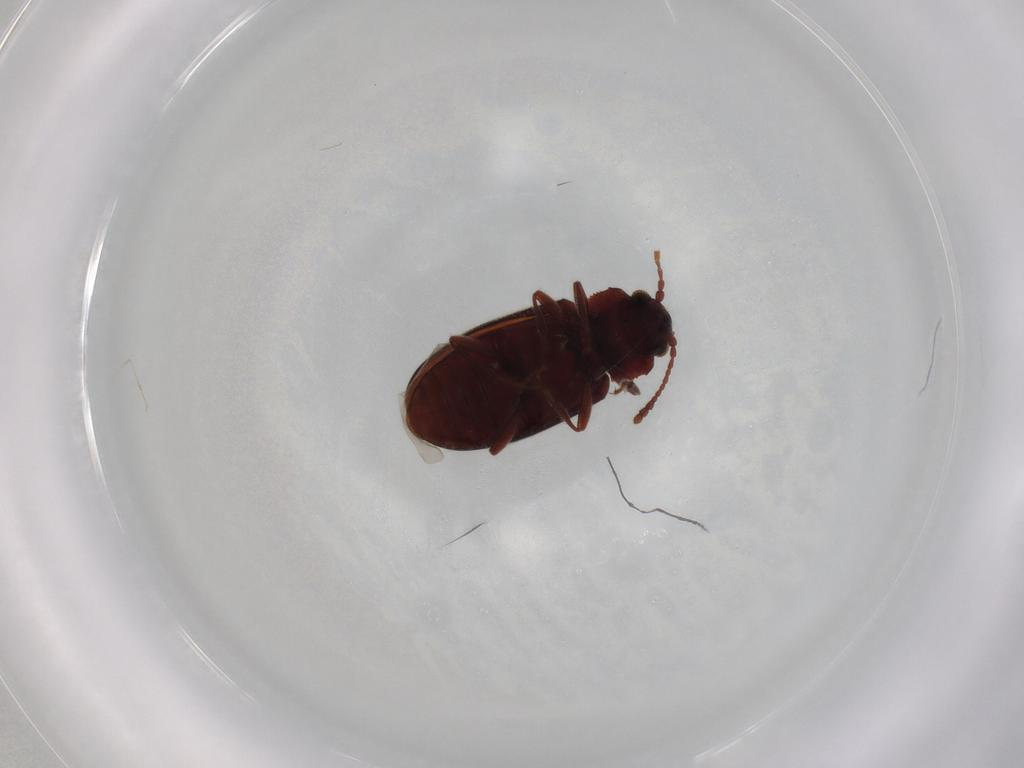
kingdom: Animalia
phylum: Arthropoda
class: Insecta
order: Coleoptera
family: Cryptophagidae
